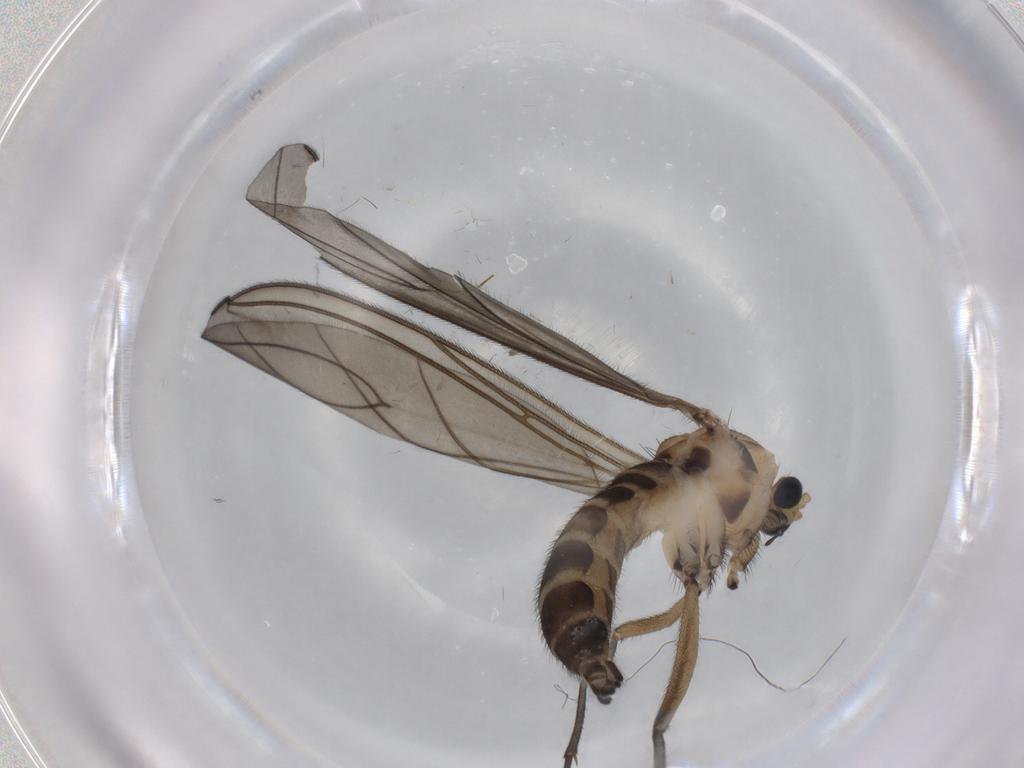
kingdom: Animalia
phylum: Arthropoda
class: Insecta
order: Diptera
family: Sciaridae
